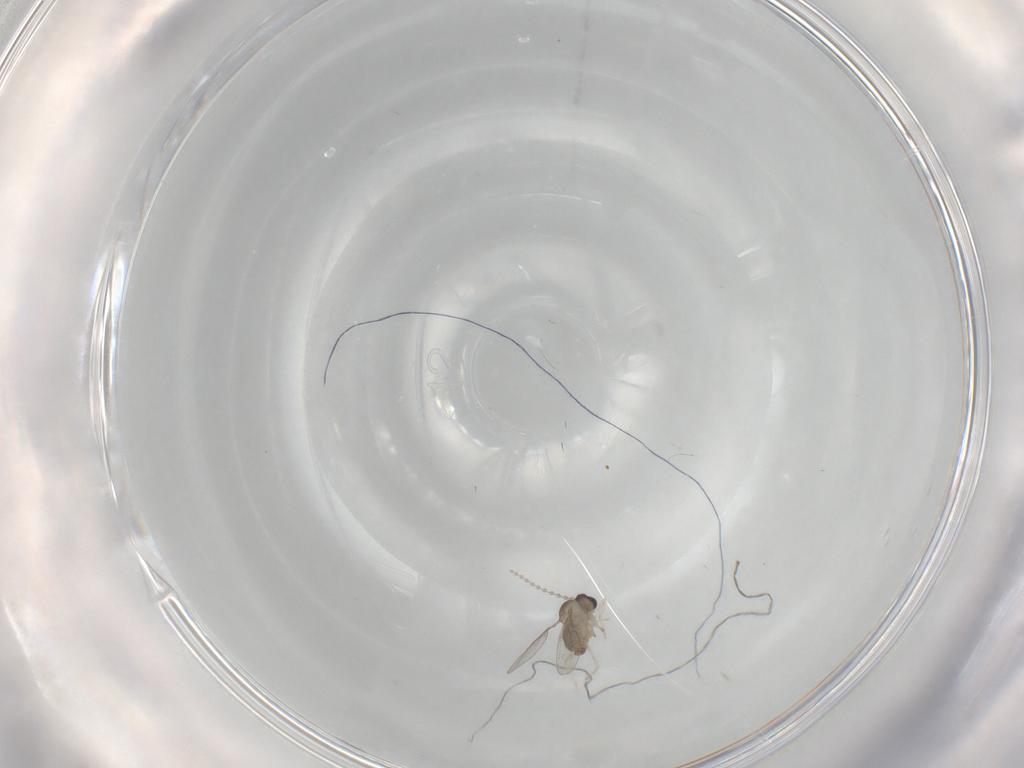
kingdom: Animalia
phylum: Arthropoda
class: Insecta
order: Diptera
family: Cecidomyiidae
